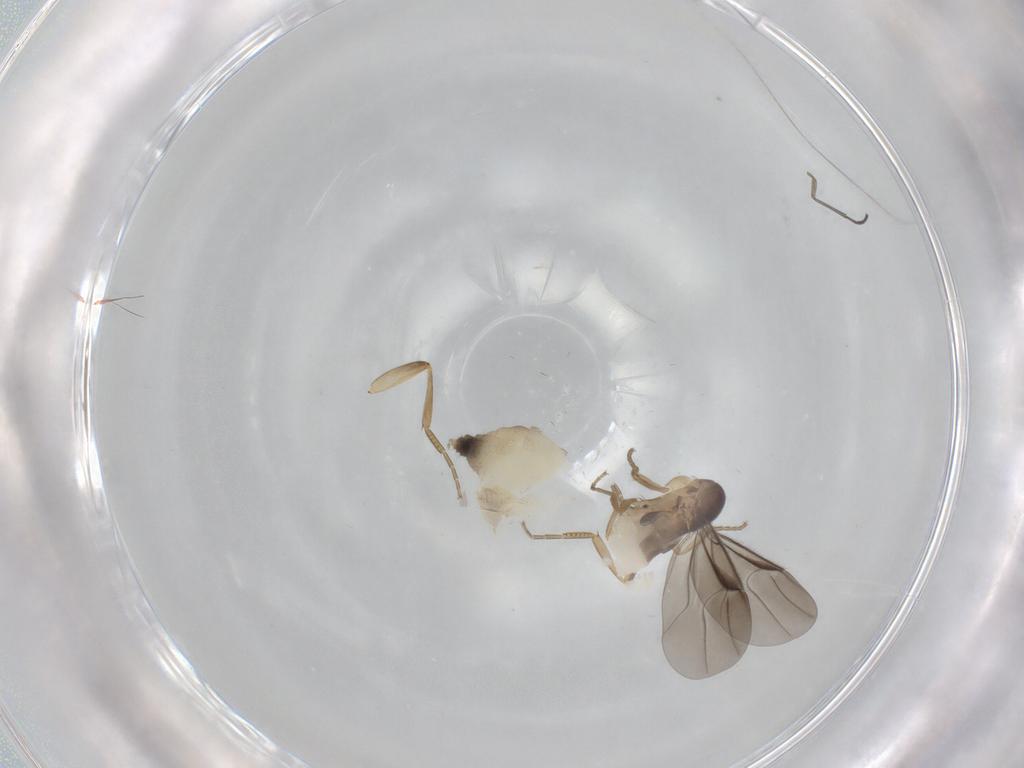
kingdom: Animalia
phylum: Arthropoda
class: Insecta
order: Diptera
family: Phoridae
